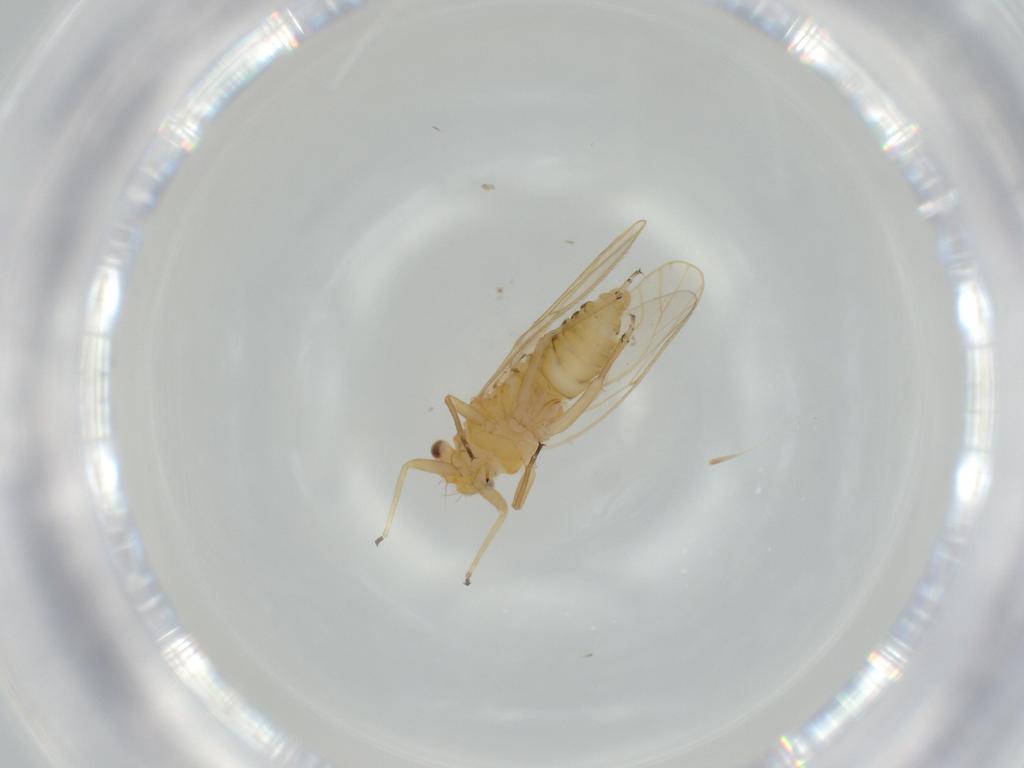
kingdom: Animalia
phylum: Arthropoda
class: Insecta
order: Hemiptera
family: Psyllidae
